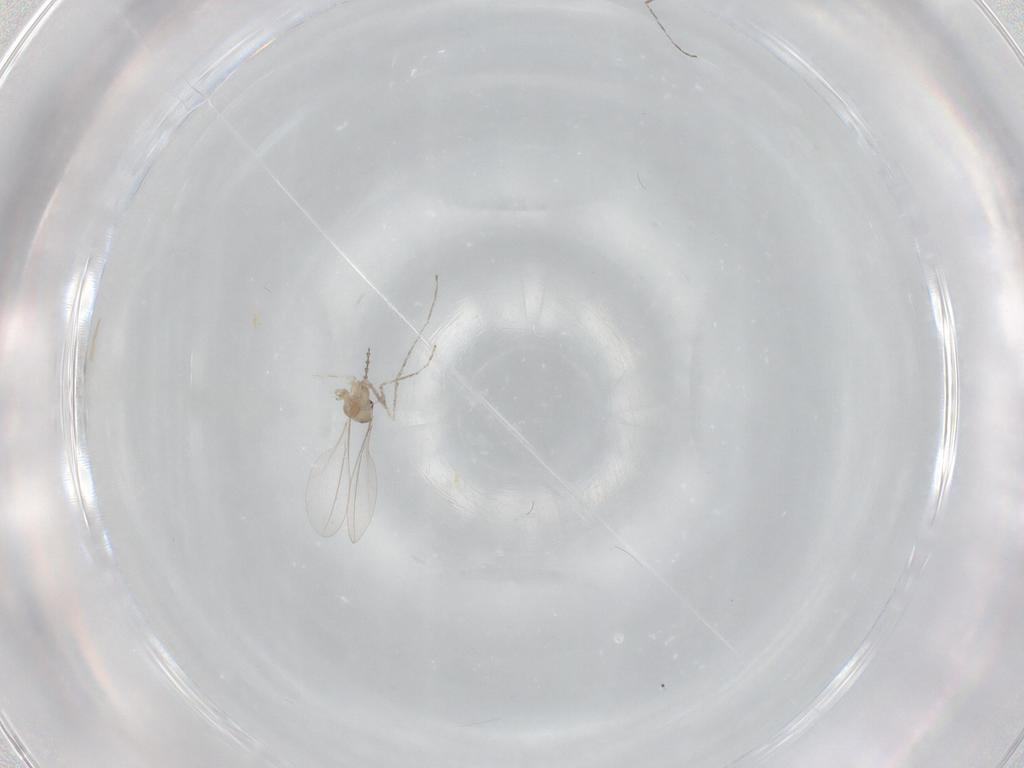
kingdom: Animalia
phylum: Arthropoda
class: Insecta
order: Diptera
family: Cecidomyiidae
